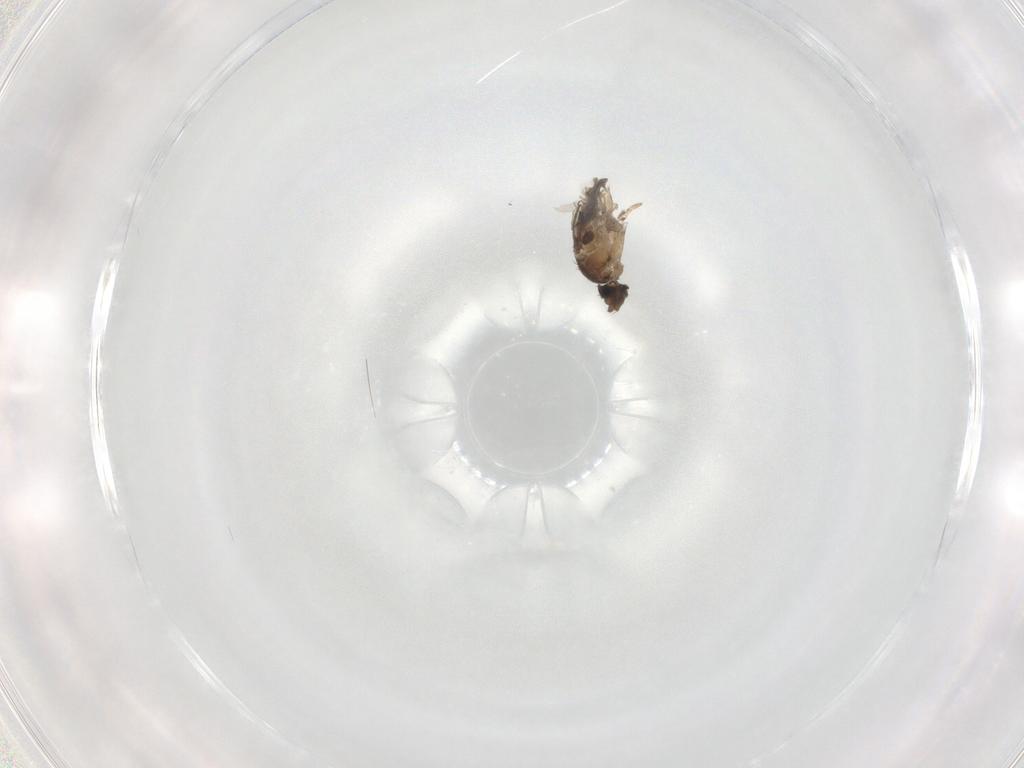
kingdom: Animalia
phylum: Arthropoda
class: Insecta
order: Diptera
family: Phoridae
